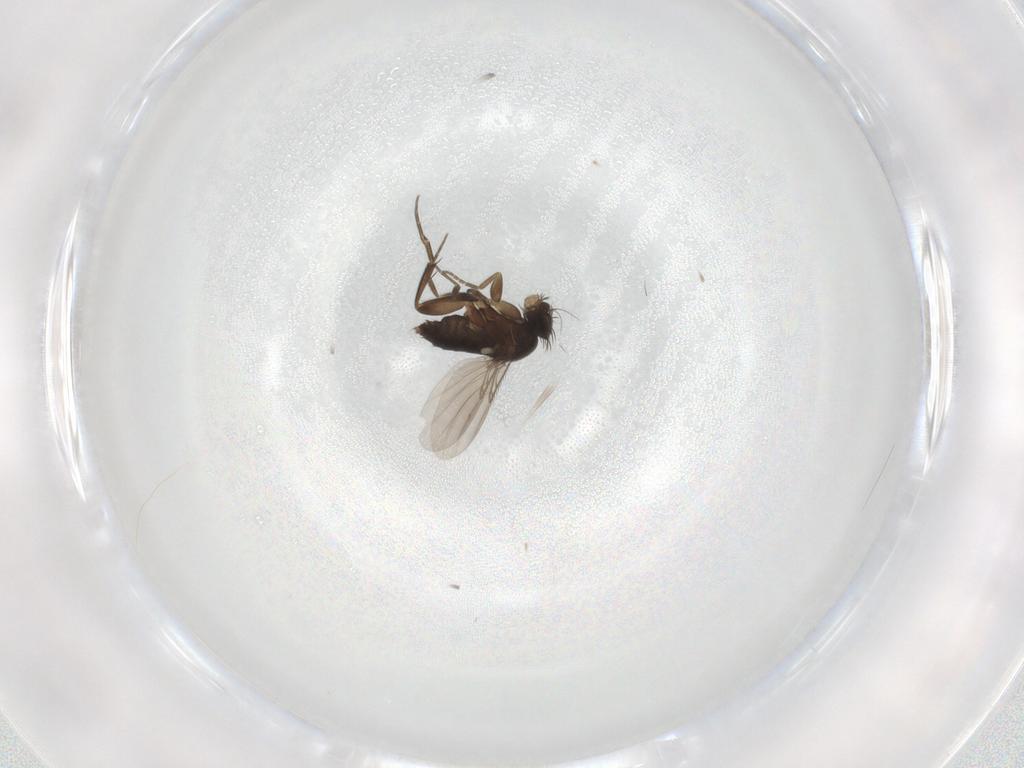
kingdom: Animalia
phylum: Arthropoda
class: Insecta
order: Diptera
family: Phoridae
